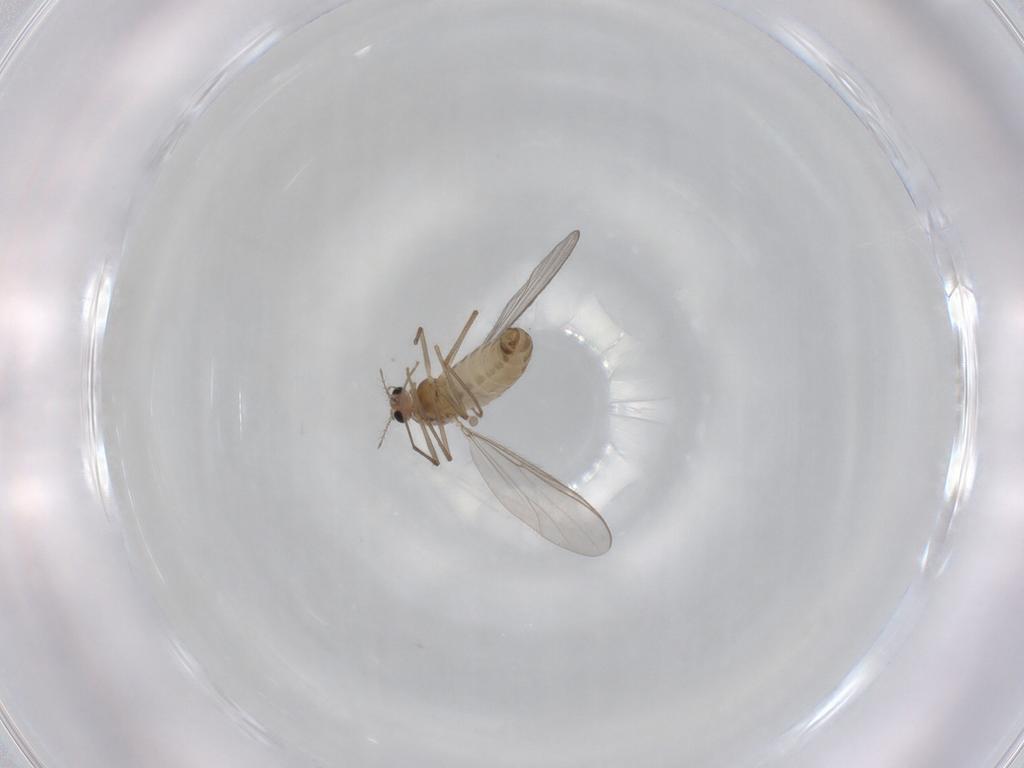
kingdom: Animalia
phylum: Arthropoda
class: Insecta
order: Diptera
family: Chironomidae
